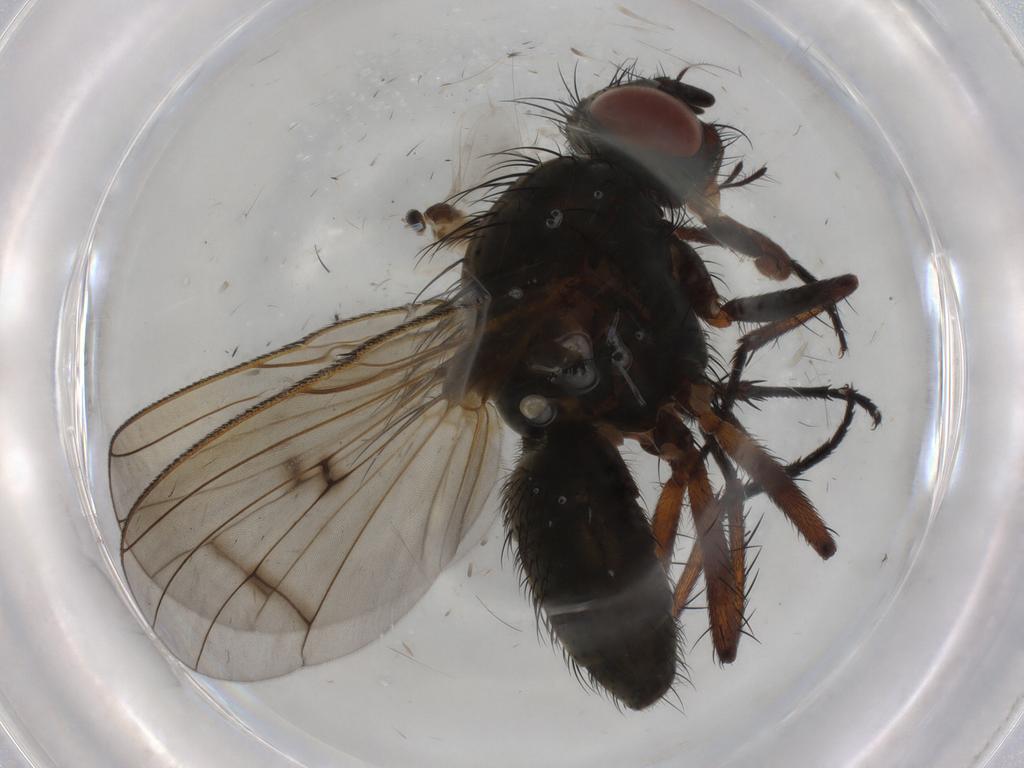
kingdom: Animalia
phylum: Arthropoda
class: Insecta
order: Diptera
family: Anthomyiidae
